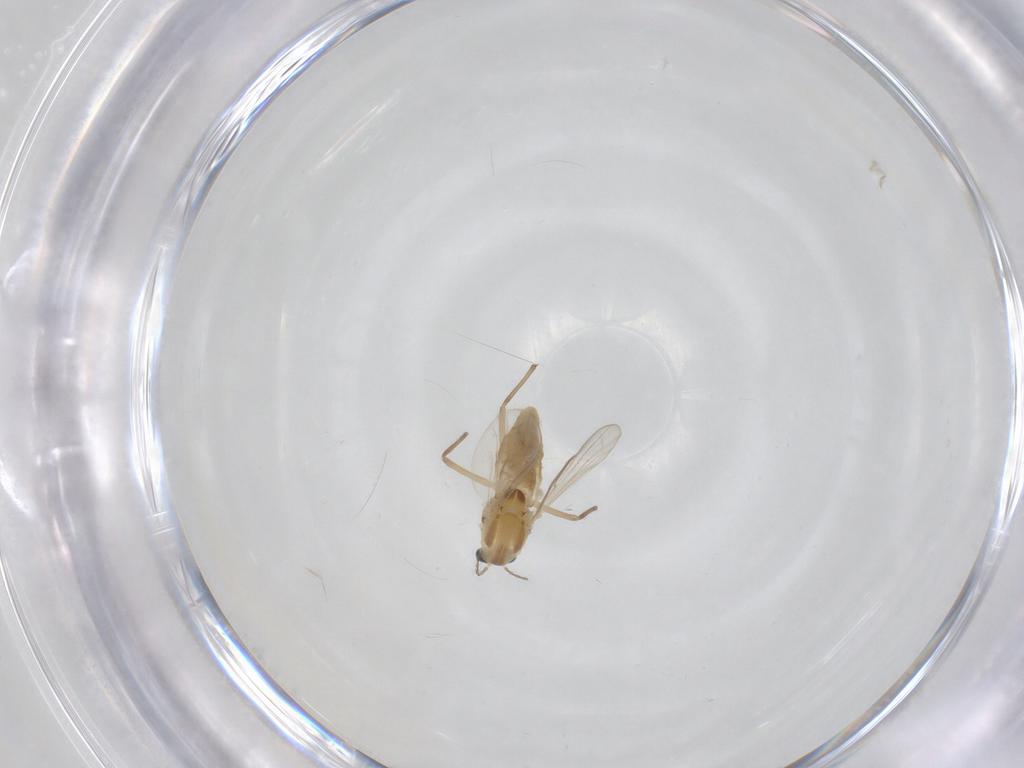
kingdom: Animalia
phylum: Arthropoda
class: Insecta
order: Diptera
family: Chironomidae
